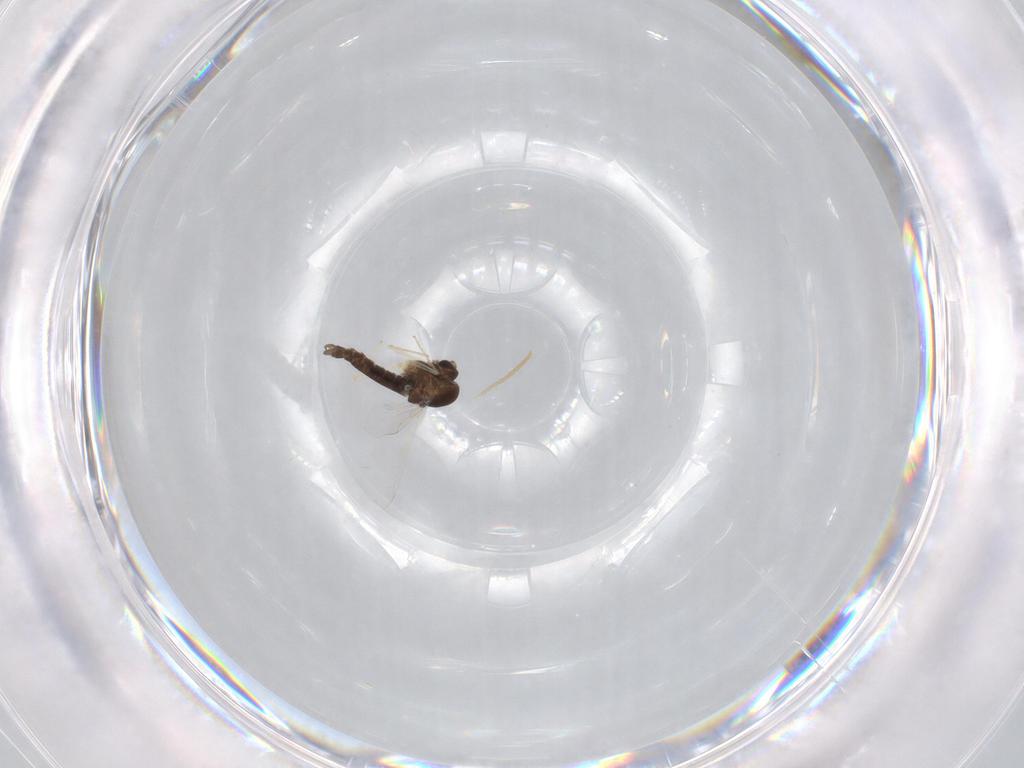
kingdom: Animalia
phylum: Arthropoda
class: Insecta
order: Diptera
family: Chironomidae
